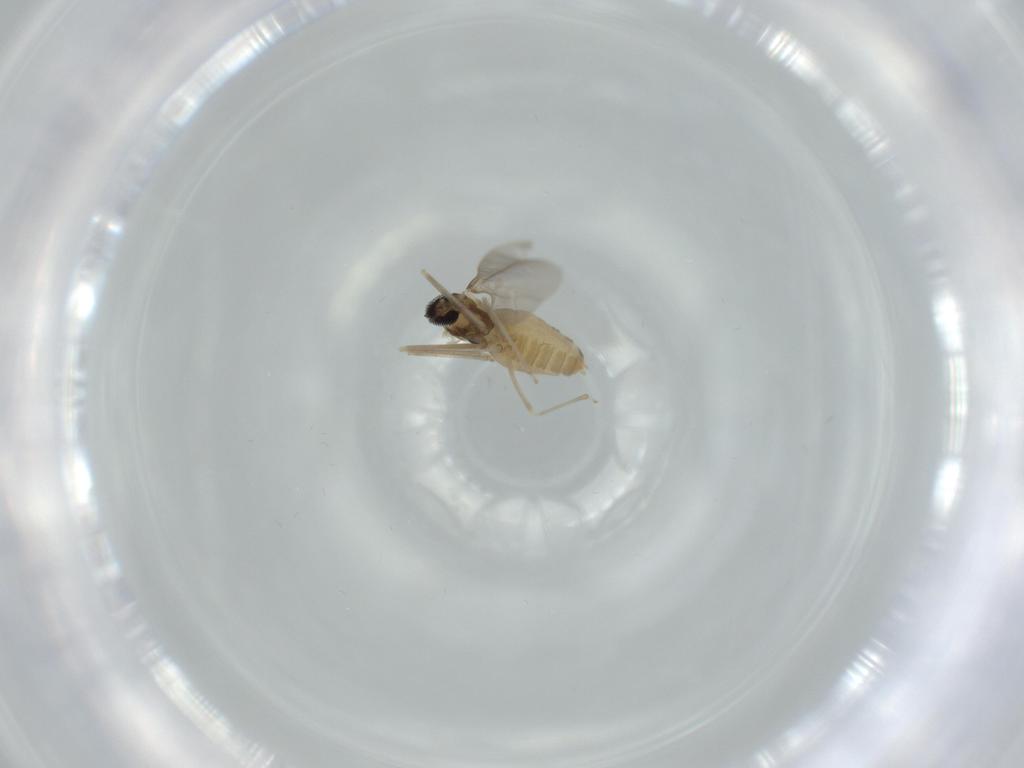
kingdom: Animalia
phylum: Arthropoda
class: Insecta
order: Diptera
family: Cecidomyiidae
